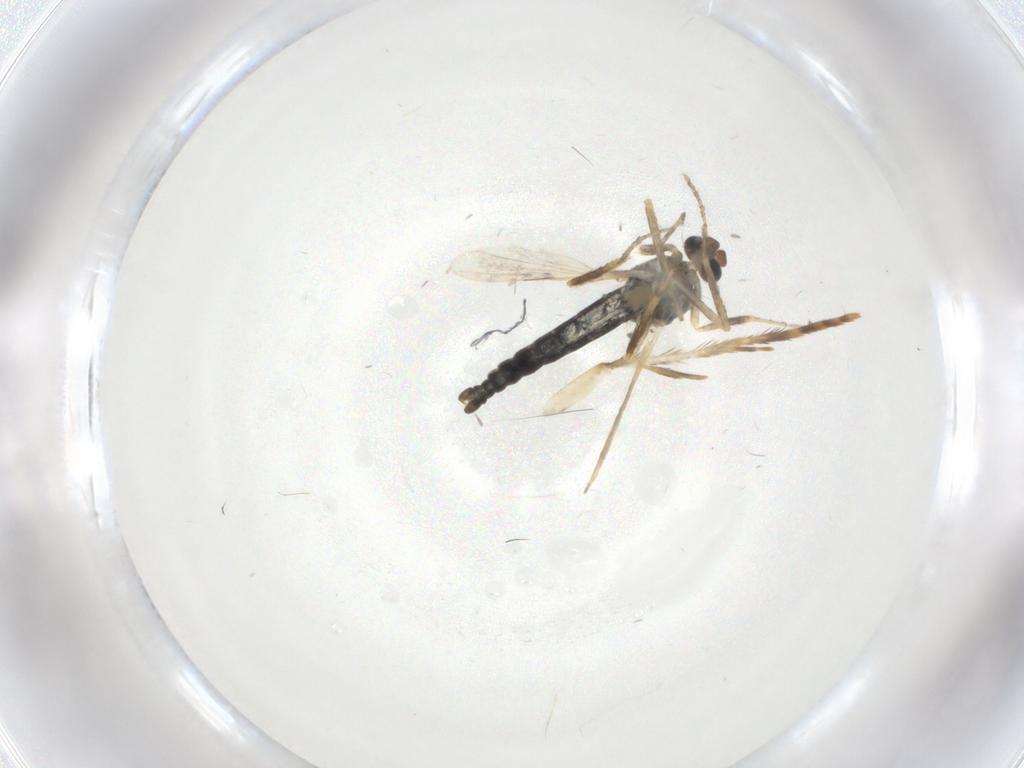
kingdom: Animalia
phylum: Arthropoda
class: Insecta
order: Diptera
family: Ceratopogonidae
